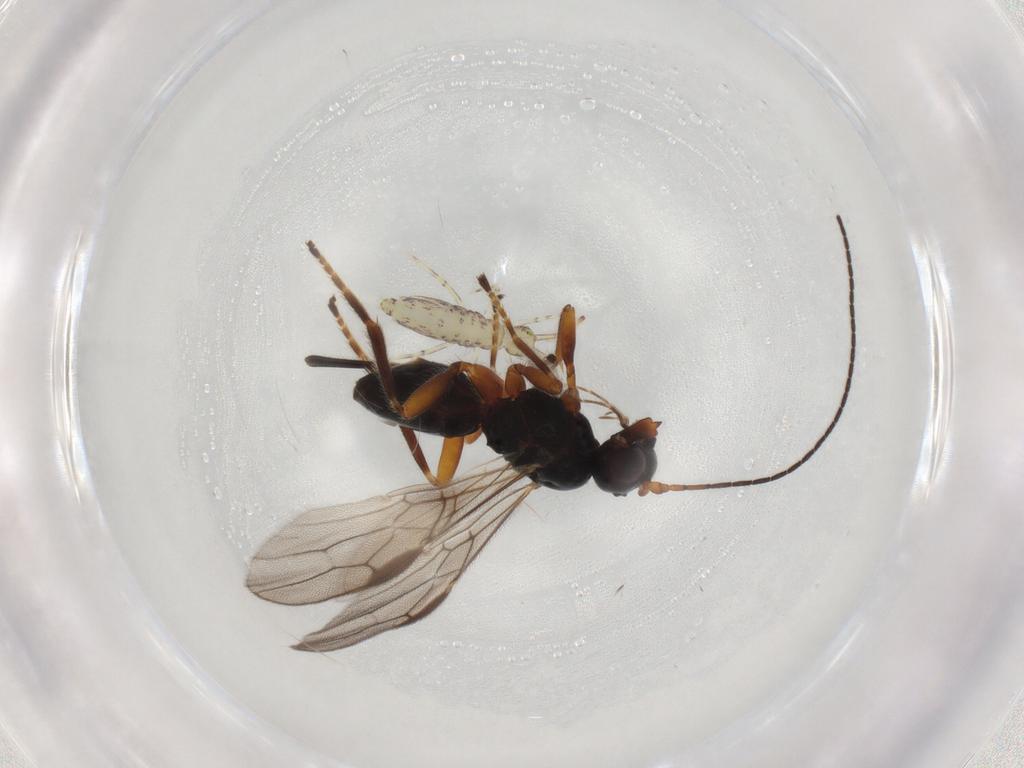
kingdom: Animalia
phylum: Arthropoda
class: Insecta
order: Hymenoptera
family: Braconidae
